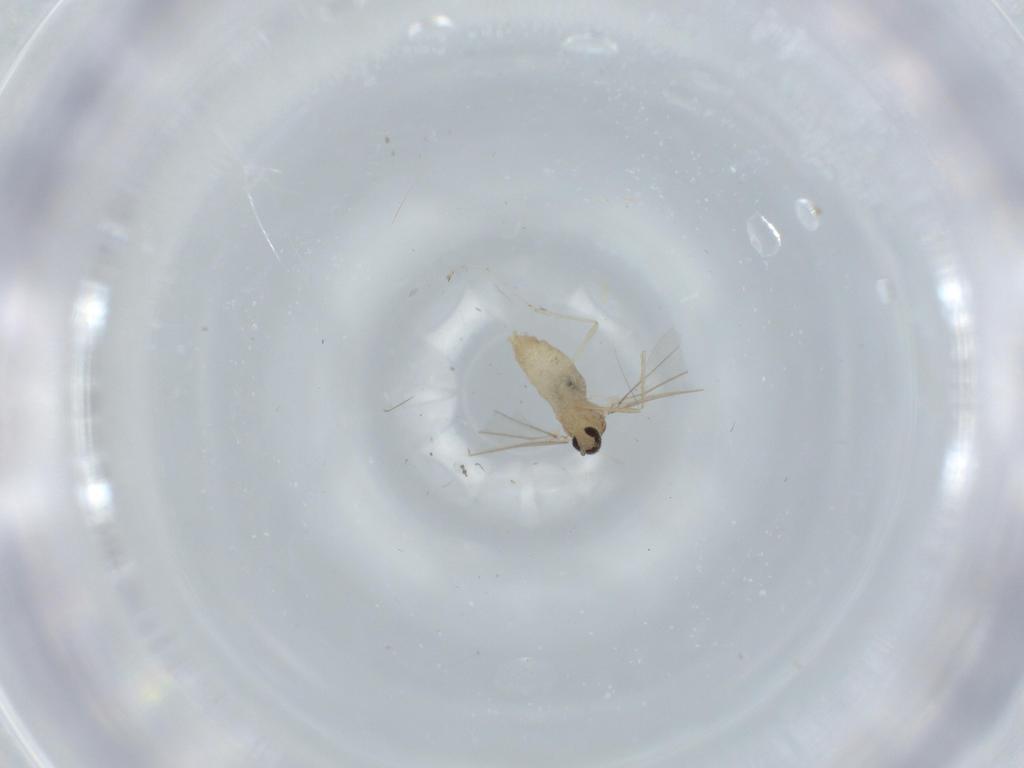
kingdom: Animalia
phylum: Arthropoda
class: Insecta
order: Diptera
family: Cecidomyiidae
